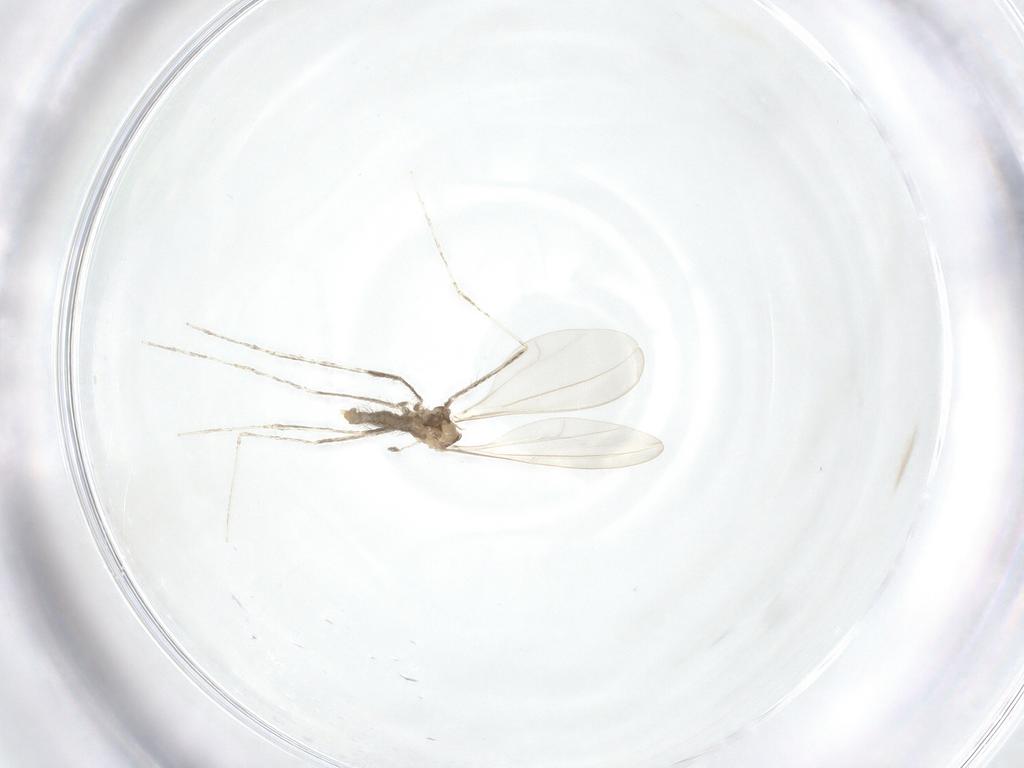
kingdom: Animalia
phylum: Arthropoda
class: Insecta
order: Diptera
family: Cecidomyiidae
